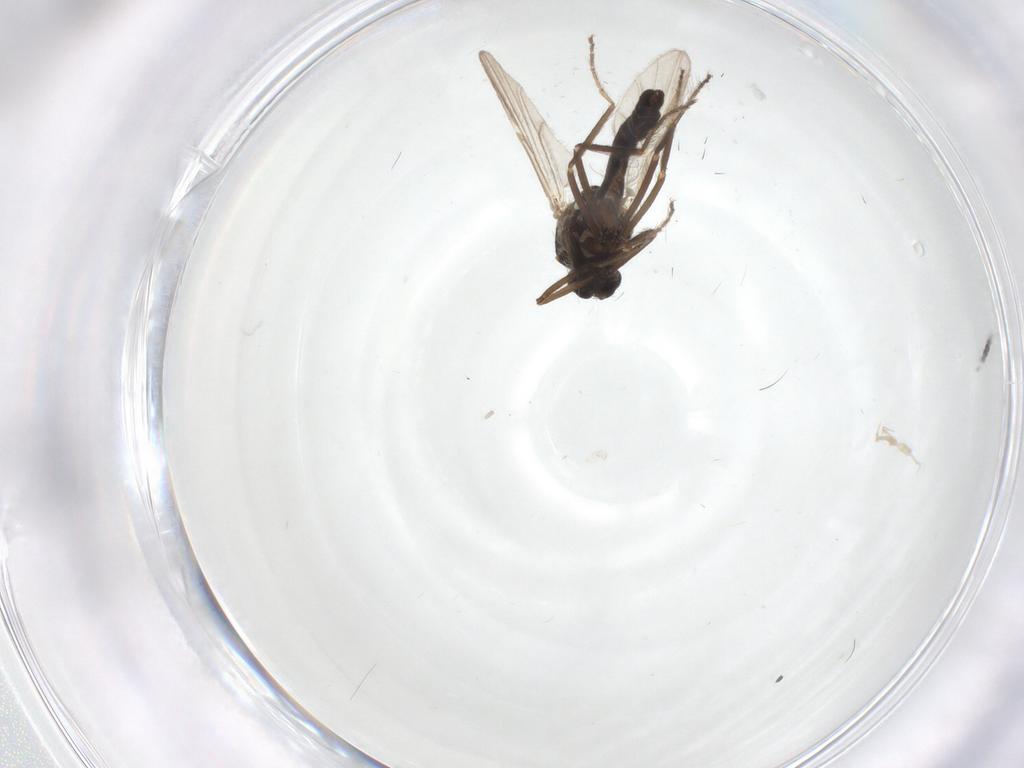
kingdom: Animalia
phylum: Arthropoda
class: Insecta
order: Diptera
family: Ceratopogonidae
